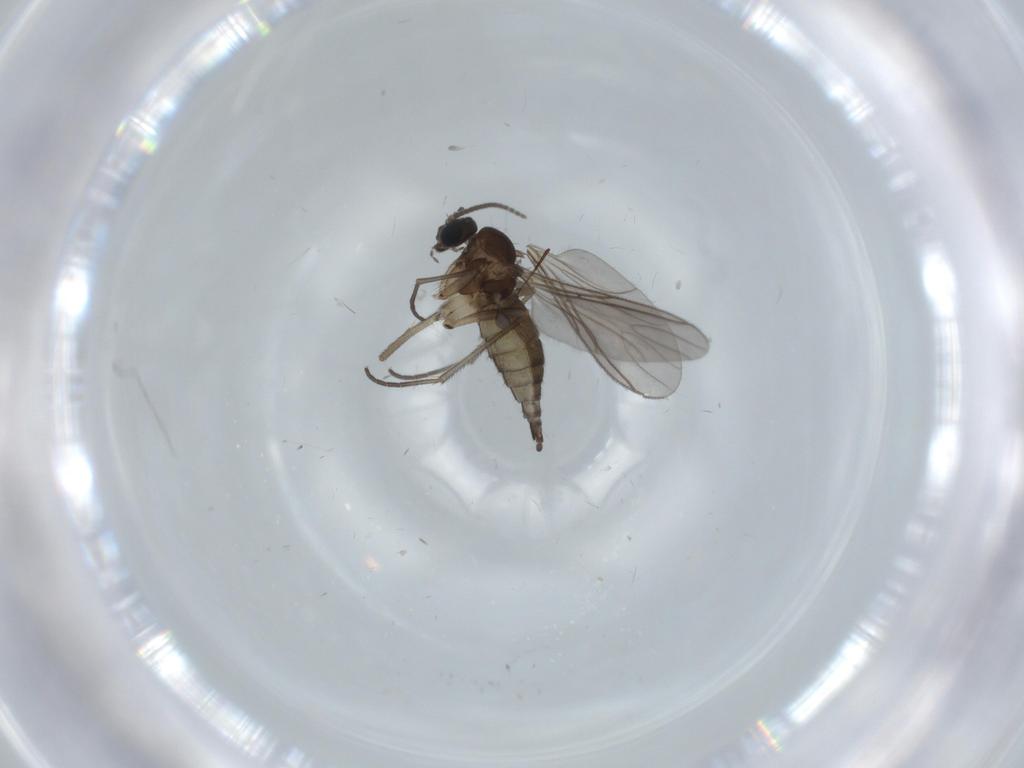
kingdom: Animalia
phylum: Arthropoda
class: Insecta
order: Diptera
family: Sciaridae
